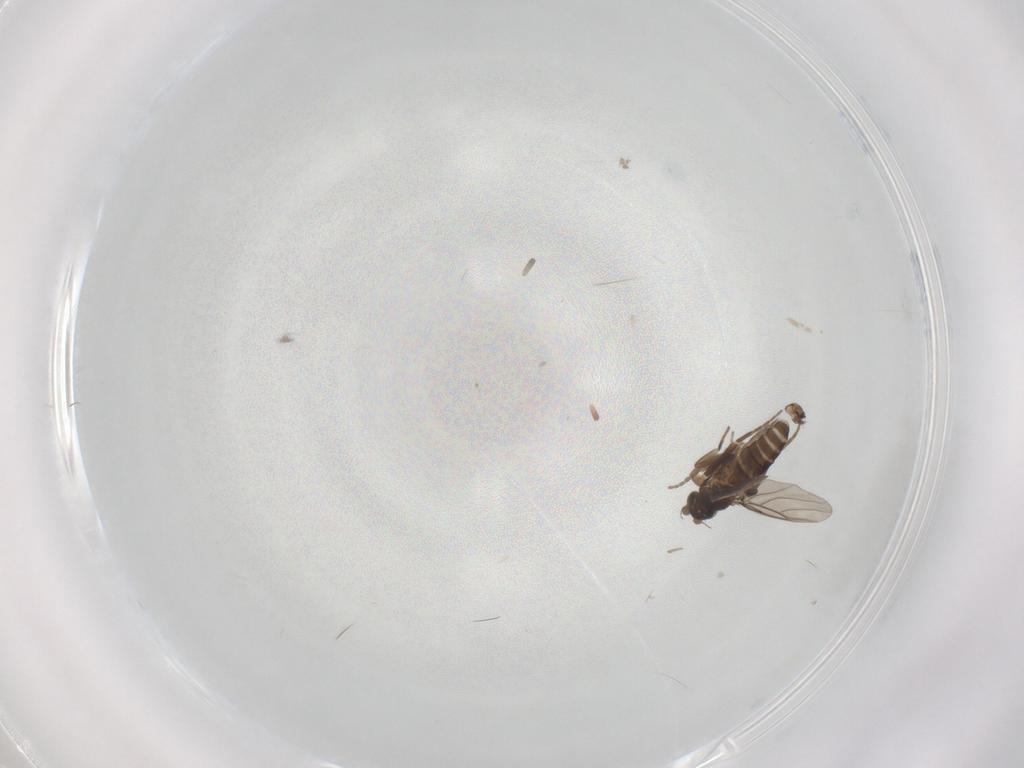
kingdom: Animalia
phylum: Arthropoda
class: Insecta
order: Diptera
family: Phoridae
